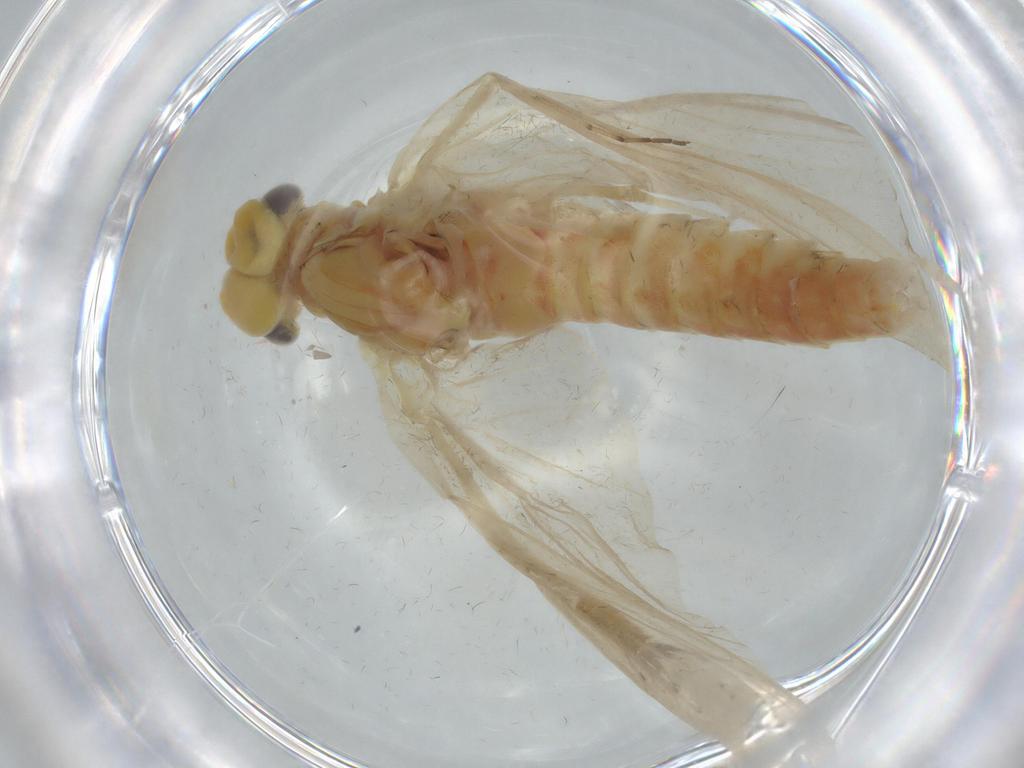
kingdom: Animalia
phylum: Arthropoda
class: Insecta
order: Ephemeroptera
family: Baetidae
